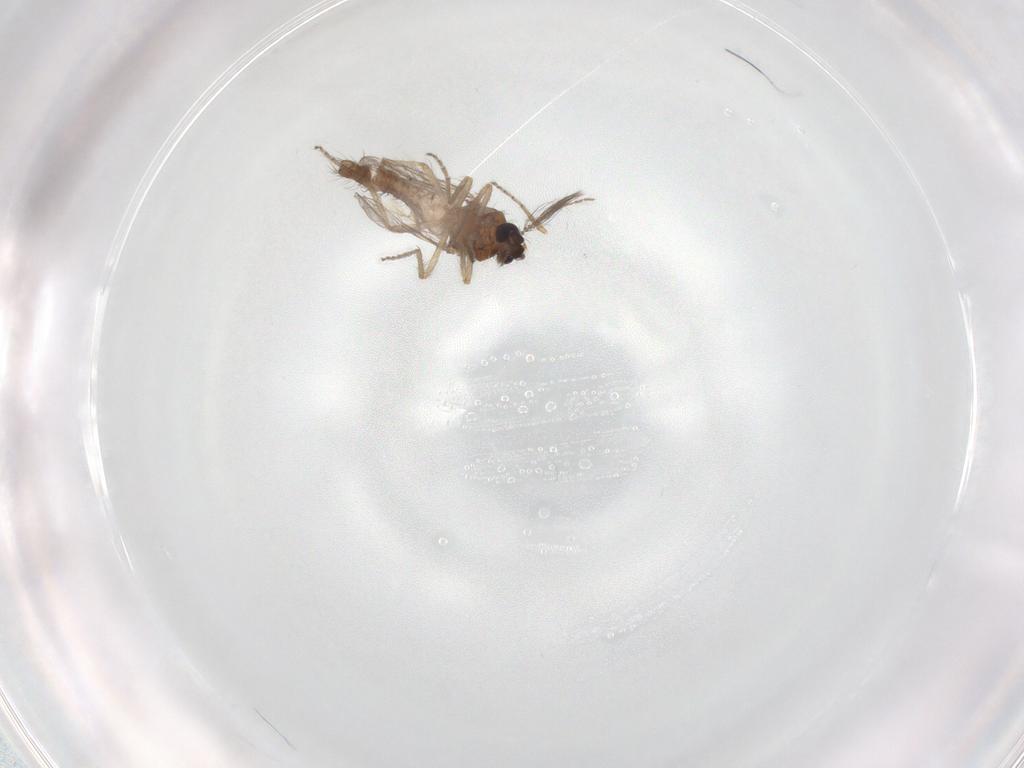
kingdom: Animalia
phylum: Arthropoda
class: Insecta
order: Diptera
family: Ceratopogonidae
